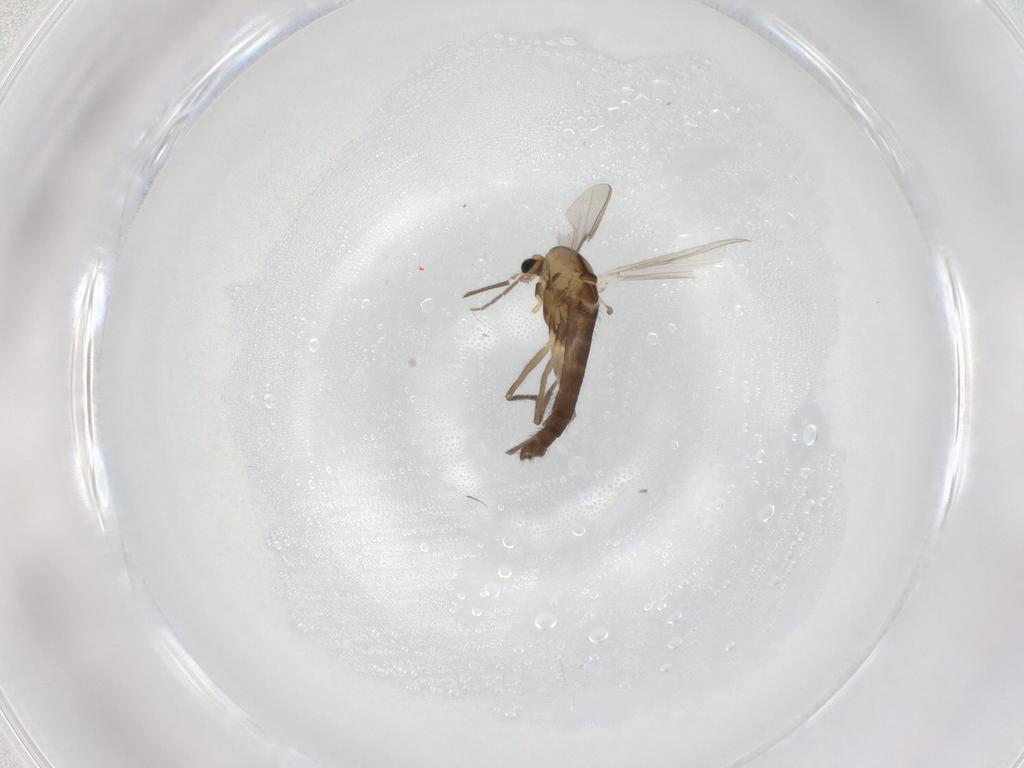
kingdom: Animalia
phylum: Arthropoda
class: Insecta
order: Diptera
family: Chironomidae
